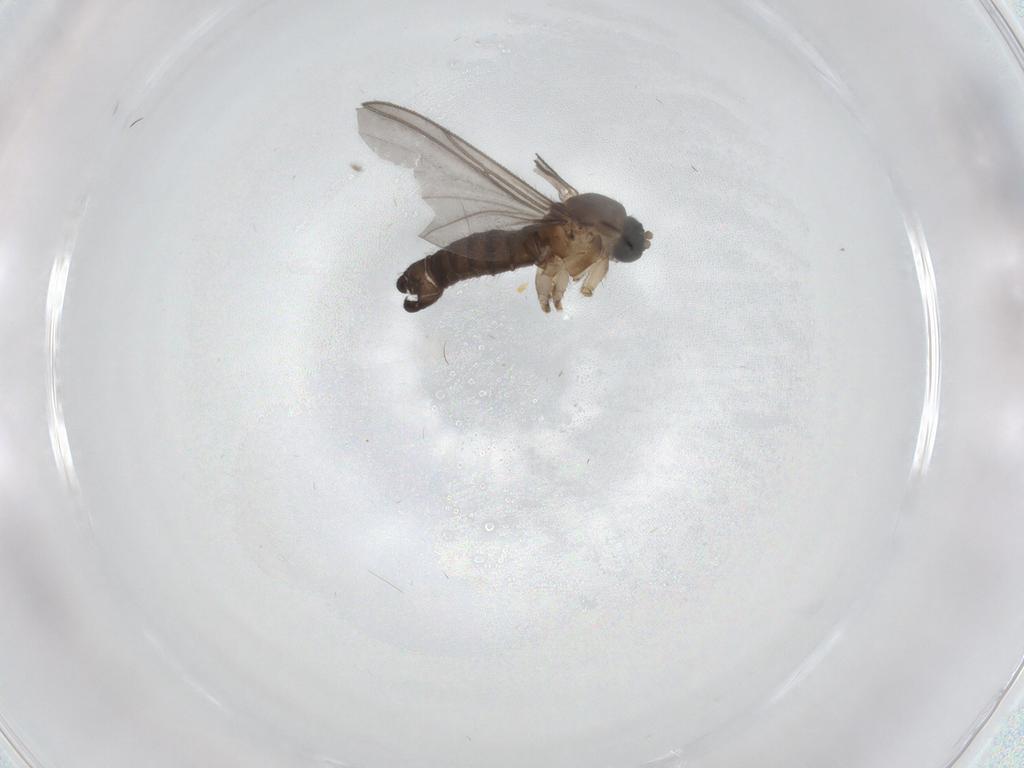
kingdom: Animalia
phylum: Arthropoda
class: Insecta
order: Diptera
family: Sciaridae
